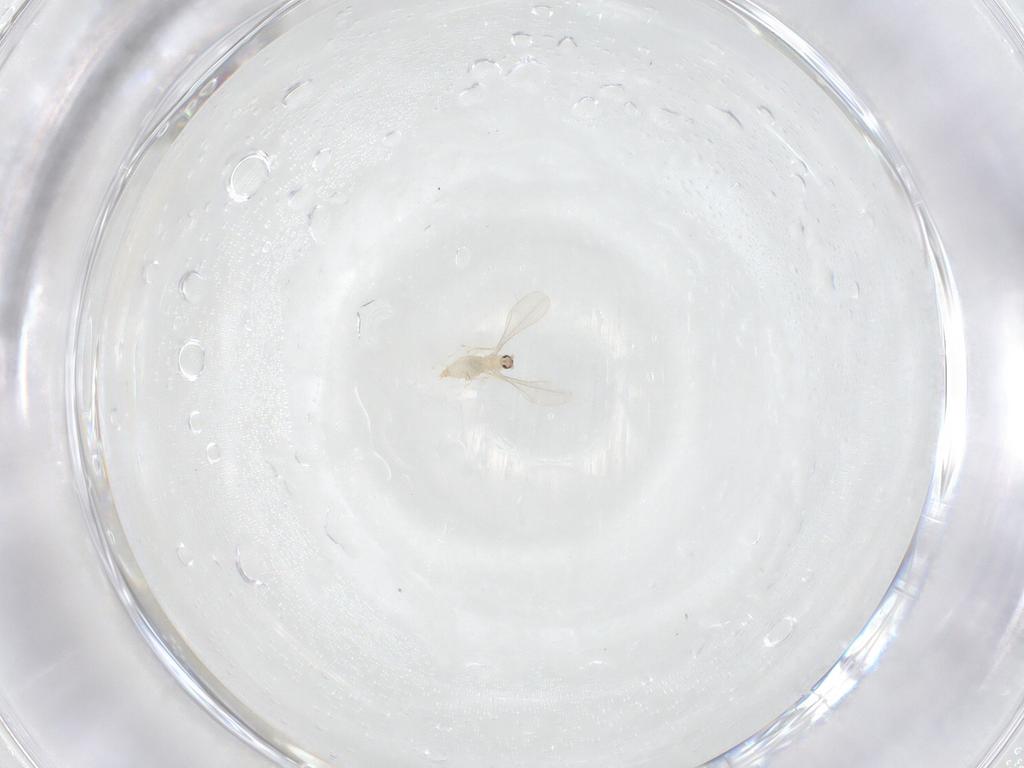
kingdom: Animalia
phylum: Arthropoda
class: Insecta
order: Diptera
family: Cecidomyiidae
